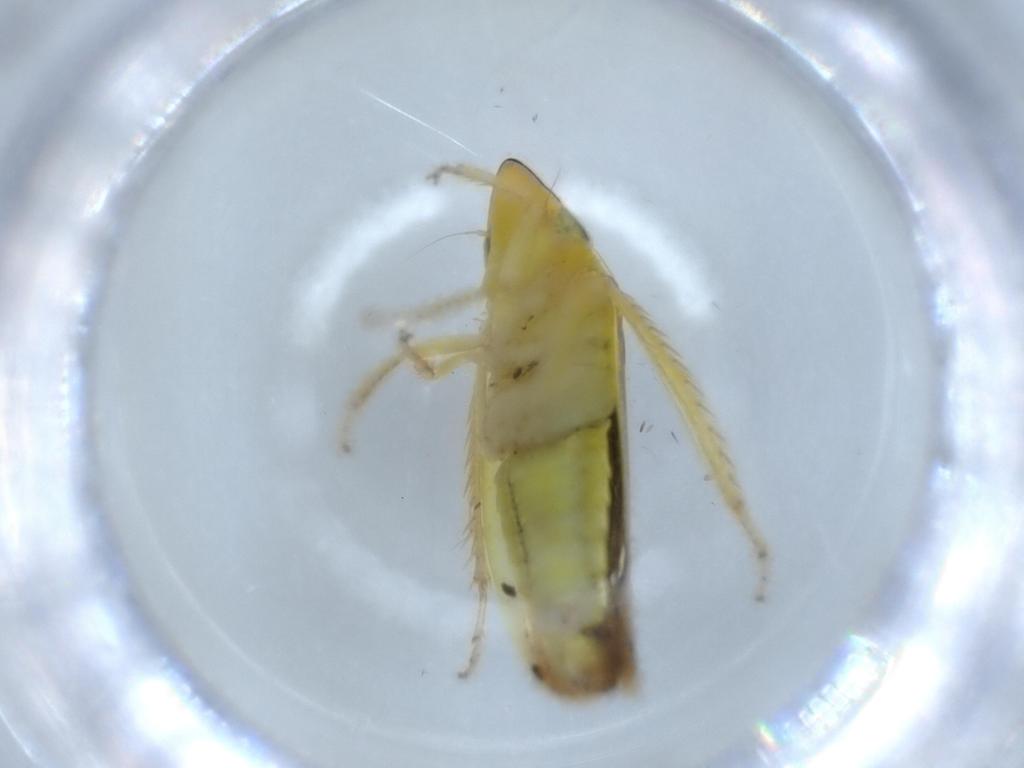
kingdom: Animalia
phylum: Arthropoda
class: Insecta
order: Hemiptera
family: Cicadellidae
